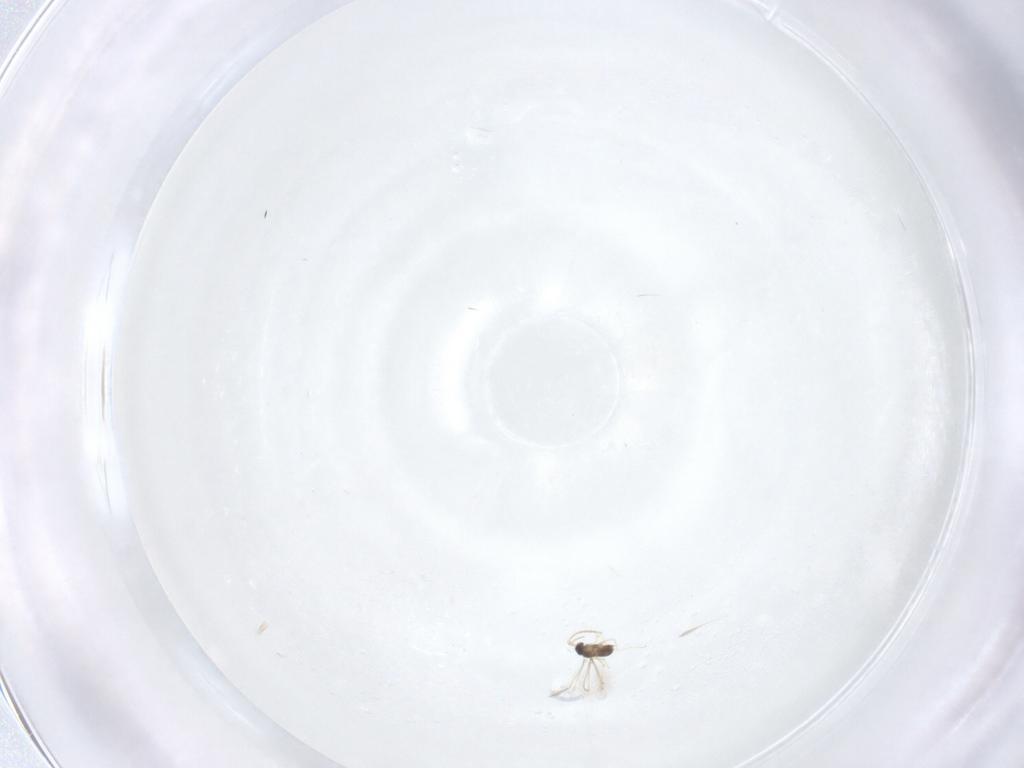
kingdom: Animalia
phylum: Arthropoda
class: Insecta
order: Hymenoptera
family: Mymaridae
